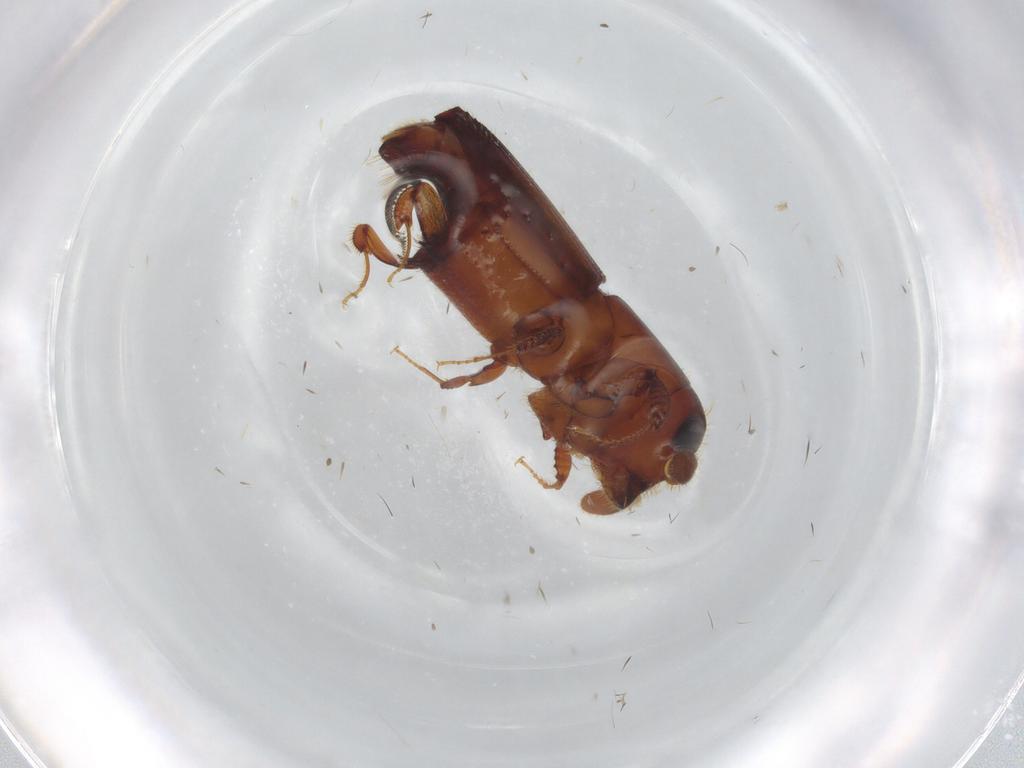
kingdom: Animalia
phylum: Arthropoda
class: Insecta
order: Coleoptera
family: Curculionidae
